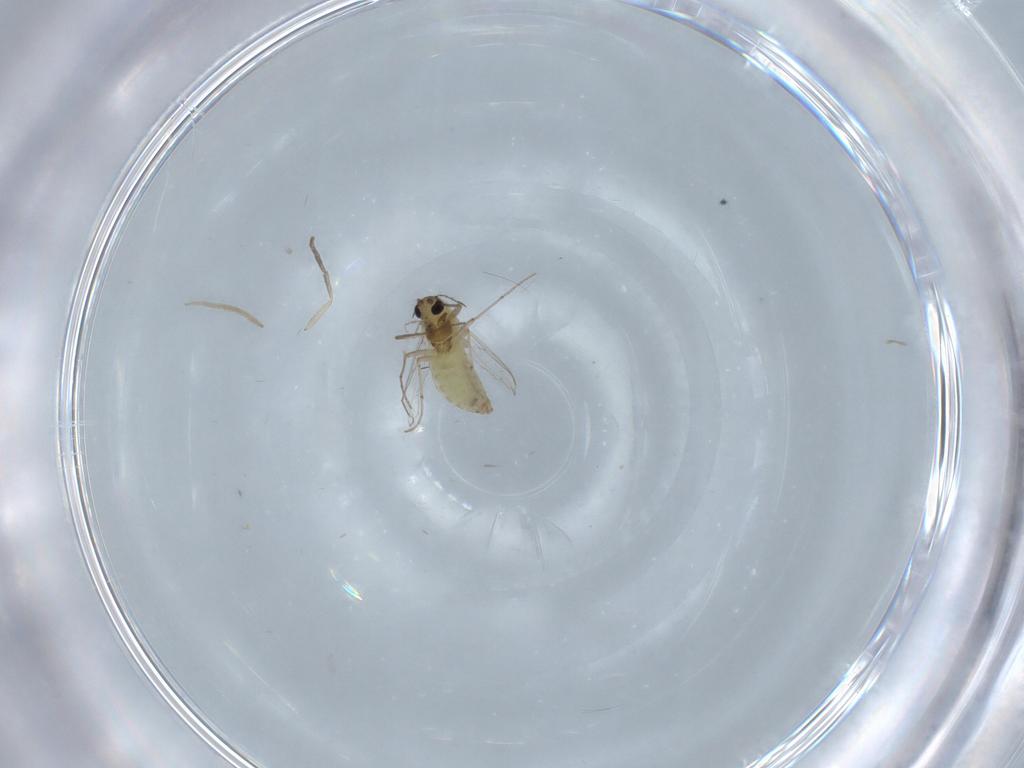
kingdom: Animalia
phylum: Arthropoda
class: Insecta
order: Diptera
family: Chironomidae
